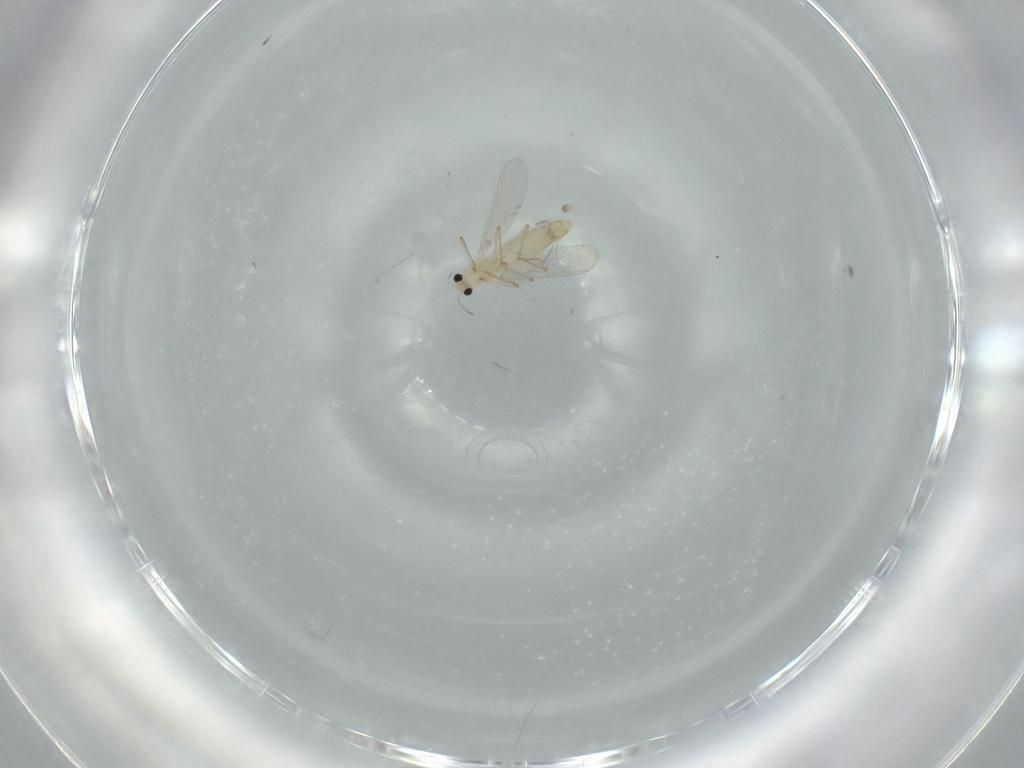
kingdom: Animalia
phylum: Arthropoda
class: Insecta
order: Diptera
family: Chironomidae
